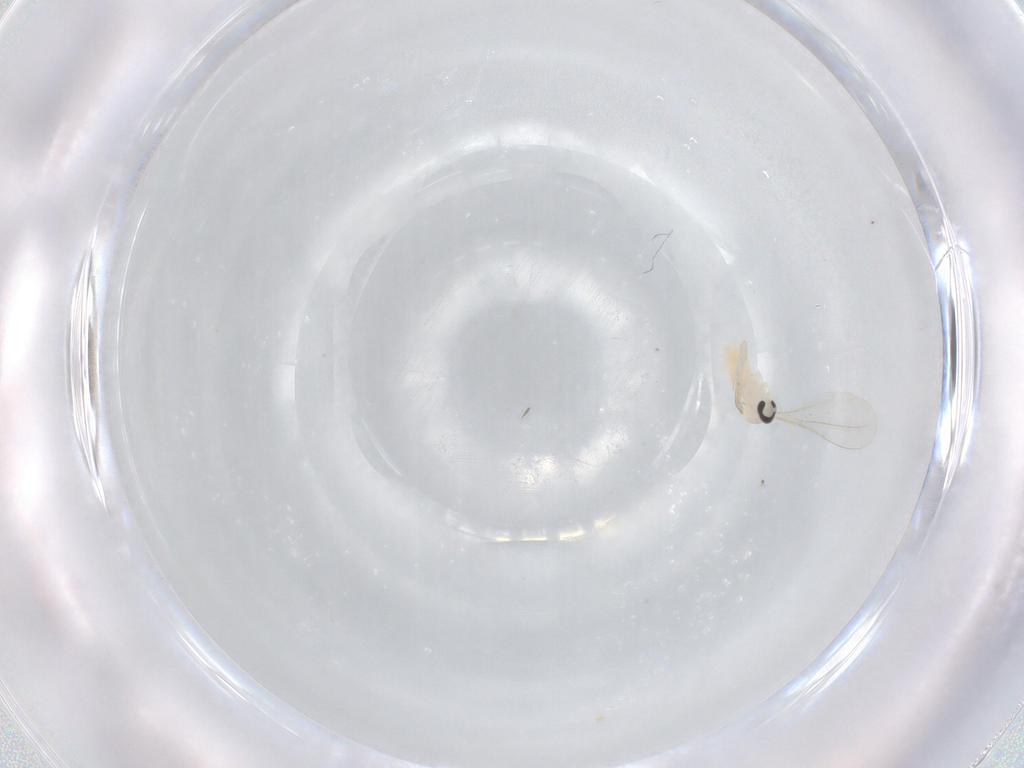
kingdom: Animalia
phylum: Arthropoda
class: Insecta
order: Diptera
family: Cecidomyiidae
